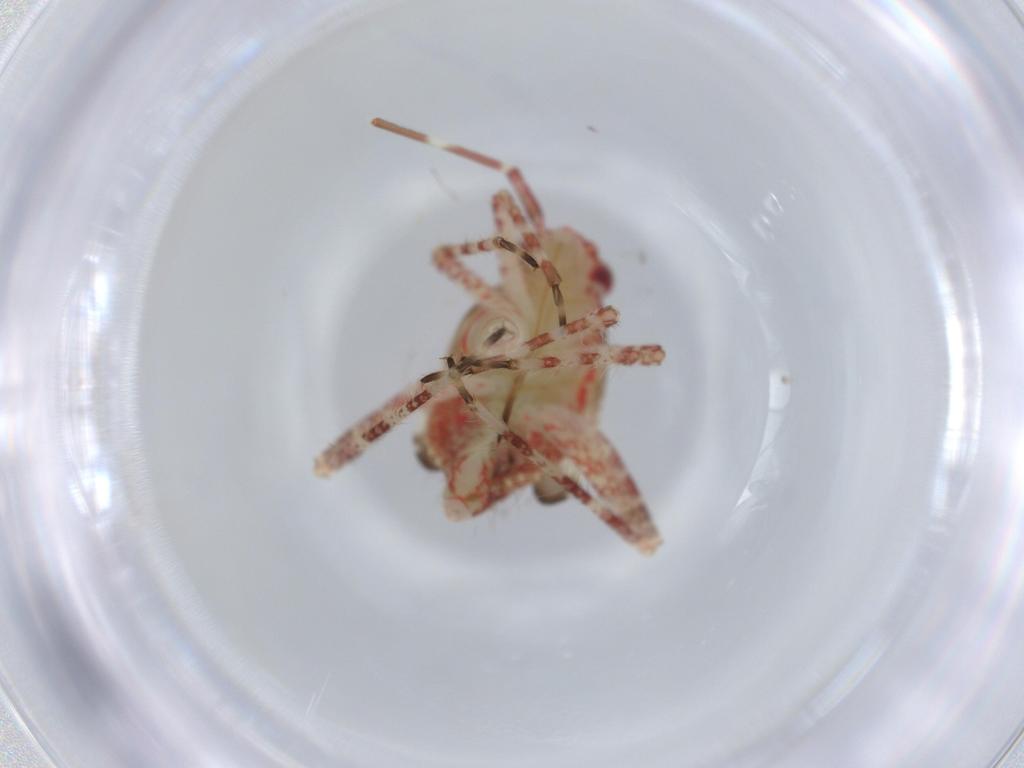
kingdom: Animalia
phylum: Arthropoda
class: Insecta
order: Hemiptera
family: Miridae
